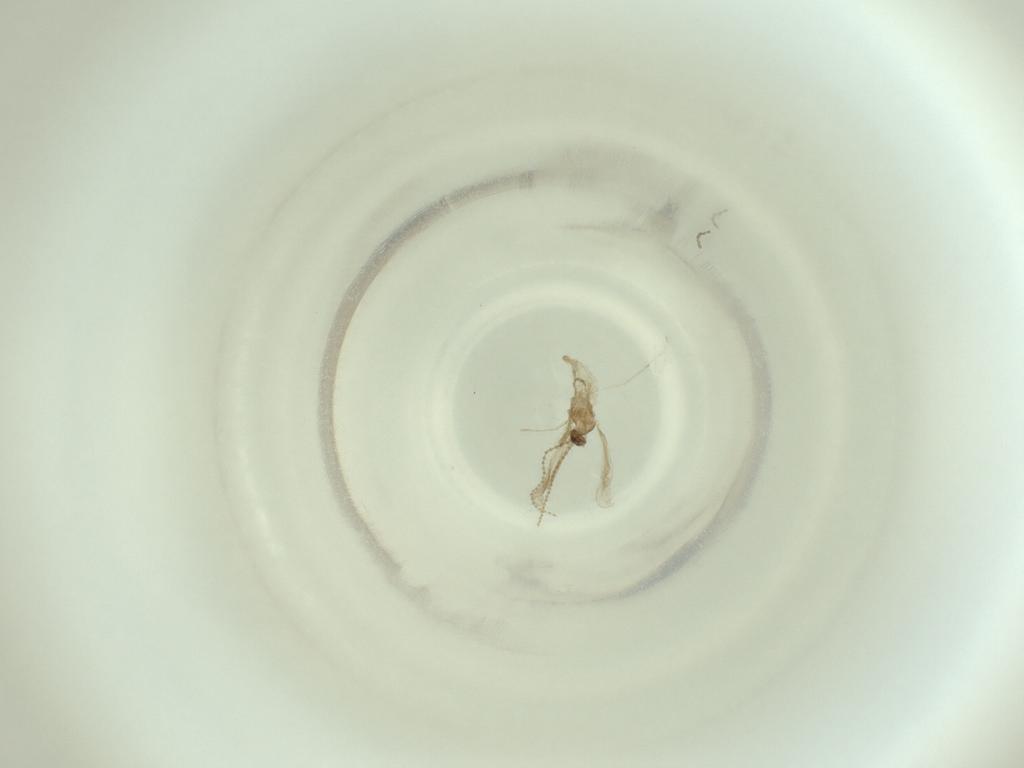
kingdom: Animalia
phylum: Arthropoda
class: Insecta
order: Diptera
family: Cecidomyiidae
